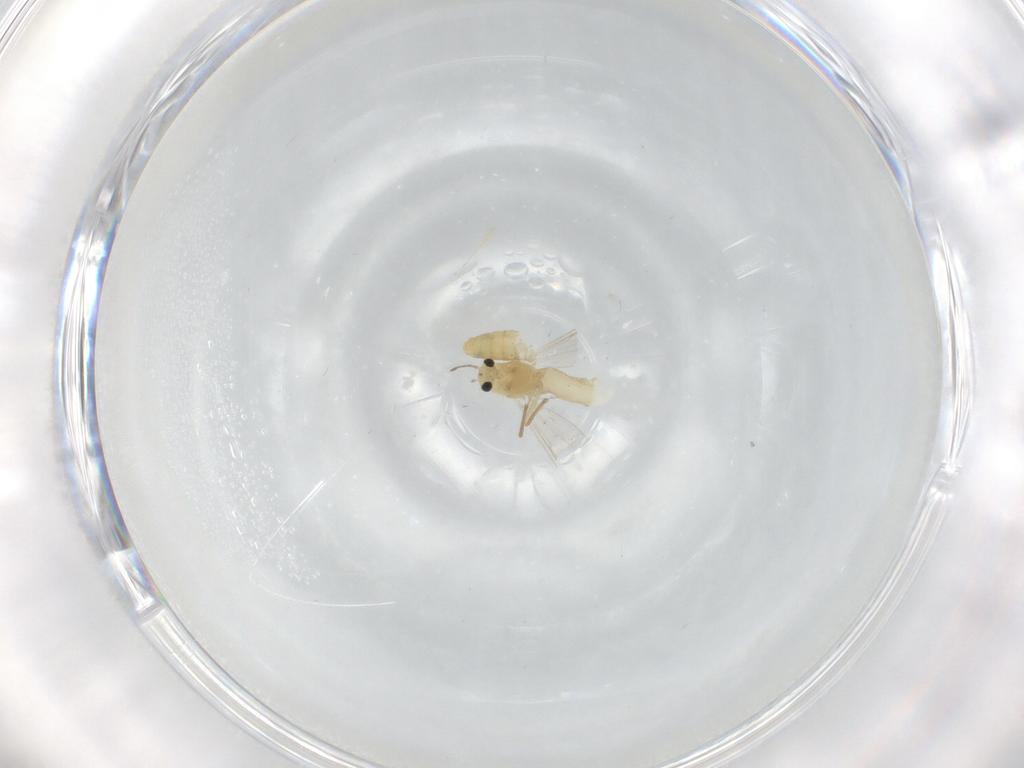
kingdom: Animalia
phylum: Arthropoda
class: Insecta
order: Diptera
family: Chironomidae
